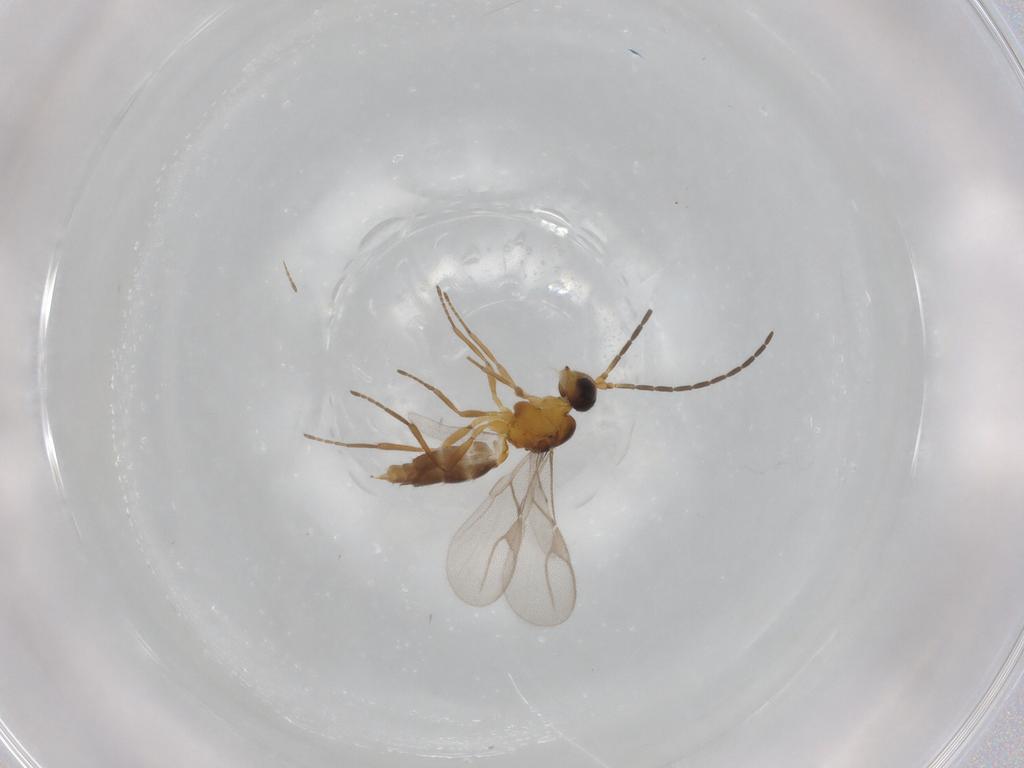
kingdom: Animalia
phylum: Arthropoda
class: Insecta
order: Hymenoptera
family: Braconidae
